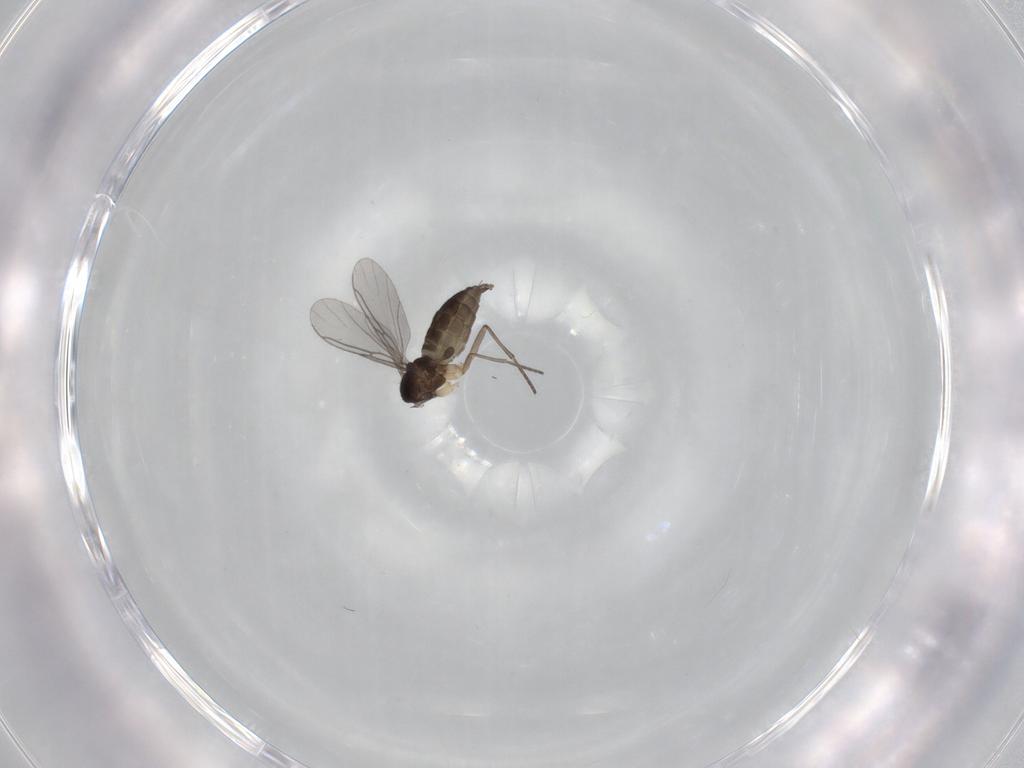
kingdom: Animalia
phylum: Arthropoda
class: Insecta
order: Diptera
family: Sciaridae
